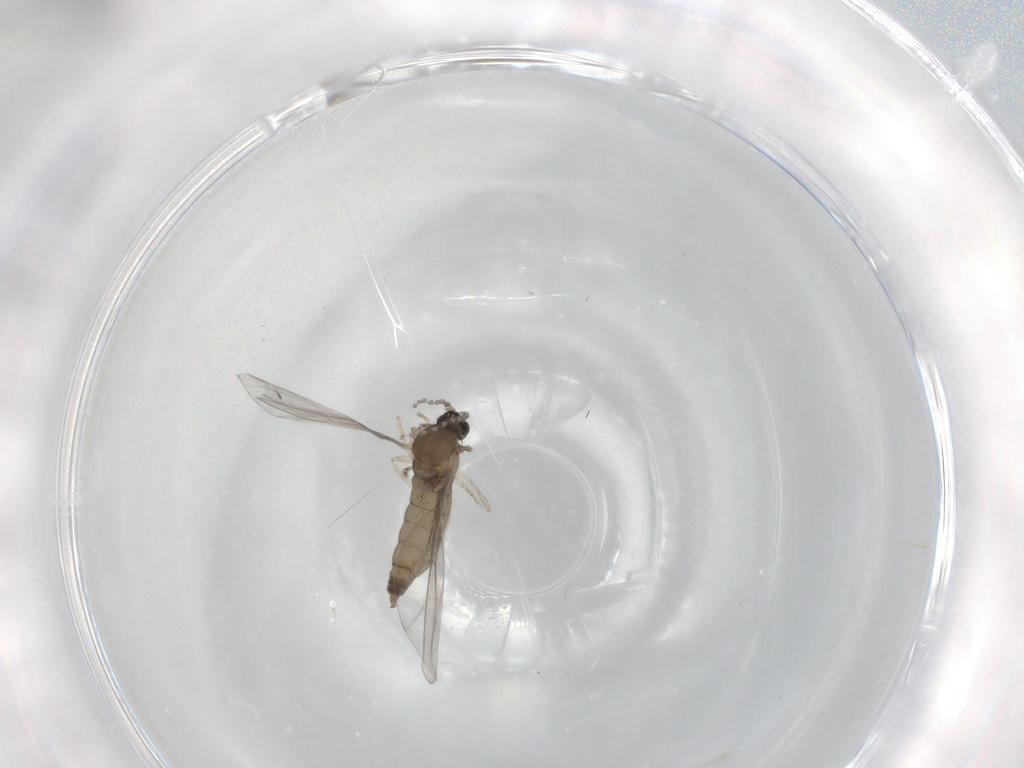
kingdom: Animalia
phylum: Arthropoda
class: Insecta
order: Diptera
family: Cecidomyiidae
